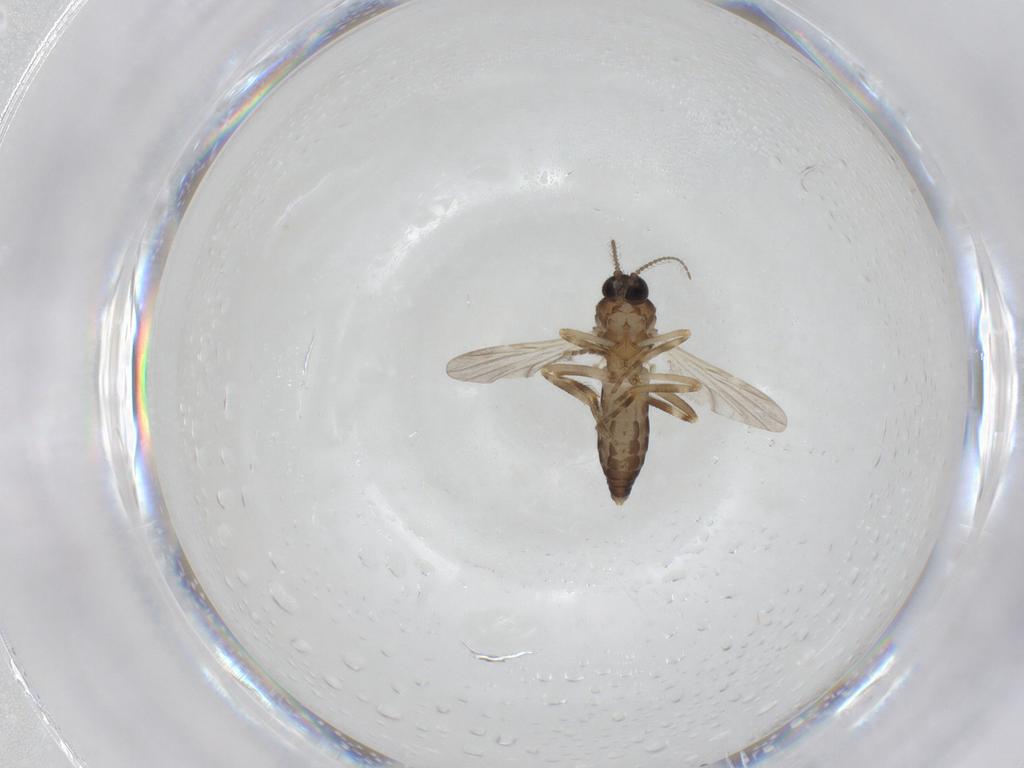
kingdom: Animalia
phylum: Arthropoda
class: Insecta
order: Diptera
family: Ceratopogonidae
